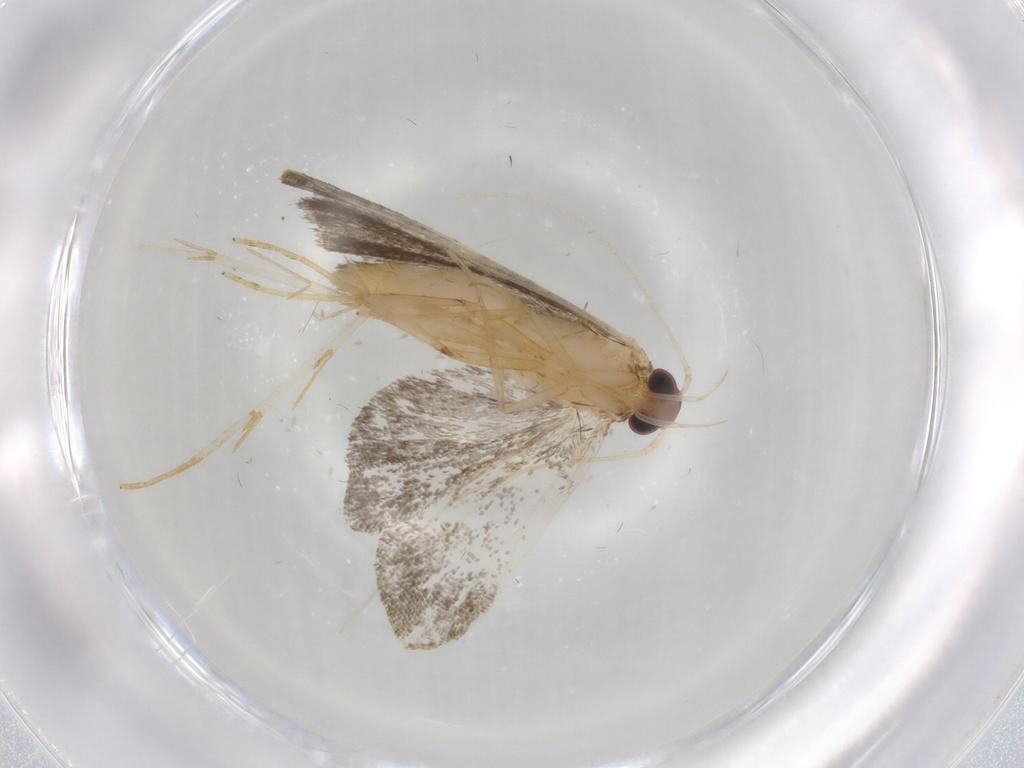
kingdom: Animalia
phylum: Arthropoda
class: Insecta
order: Lepidoptera
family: Cosmopterigidae
